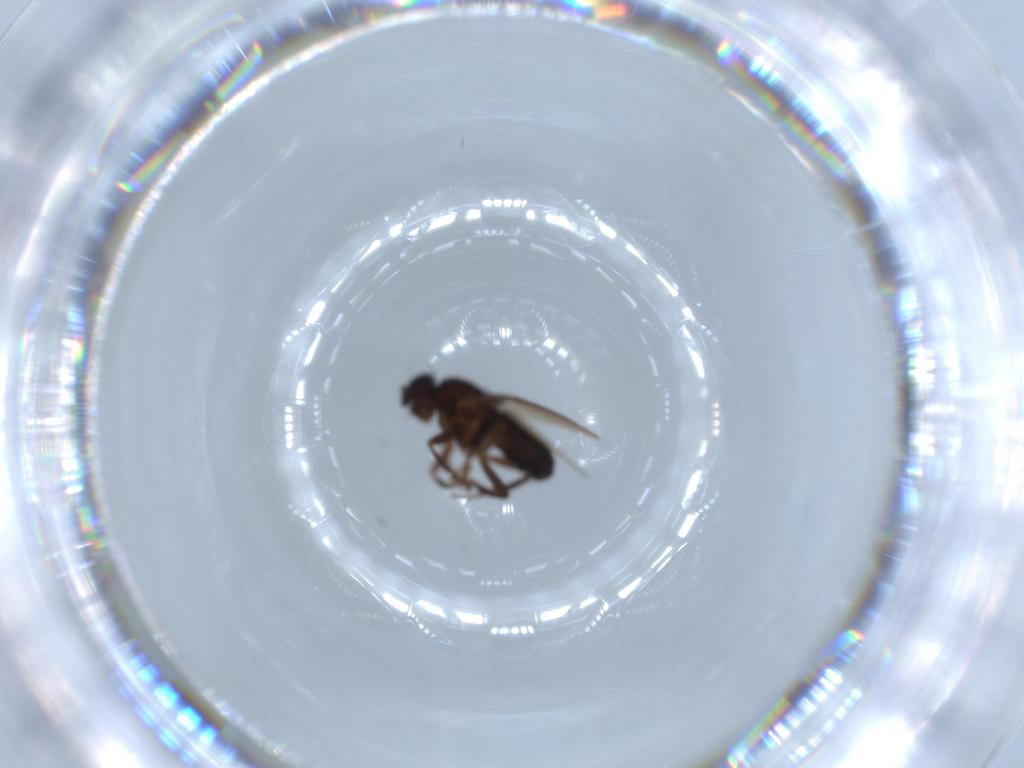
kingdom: Animalia
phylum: Arthropoda
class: Insecta
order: Diptera
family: Sphaeroceridae
